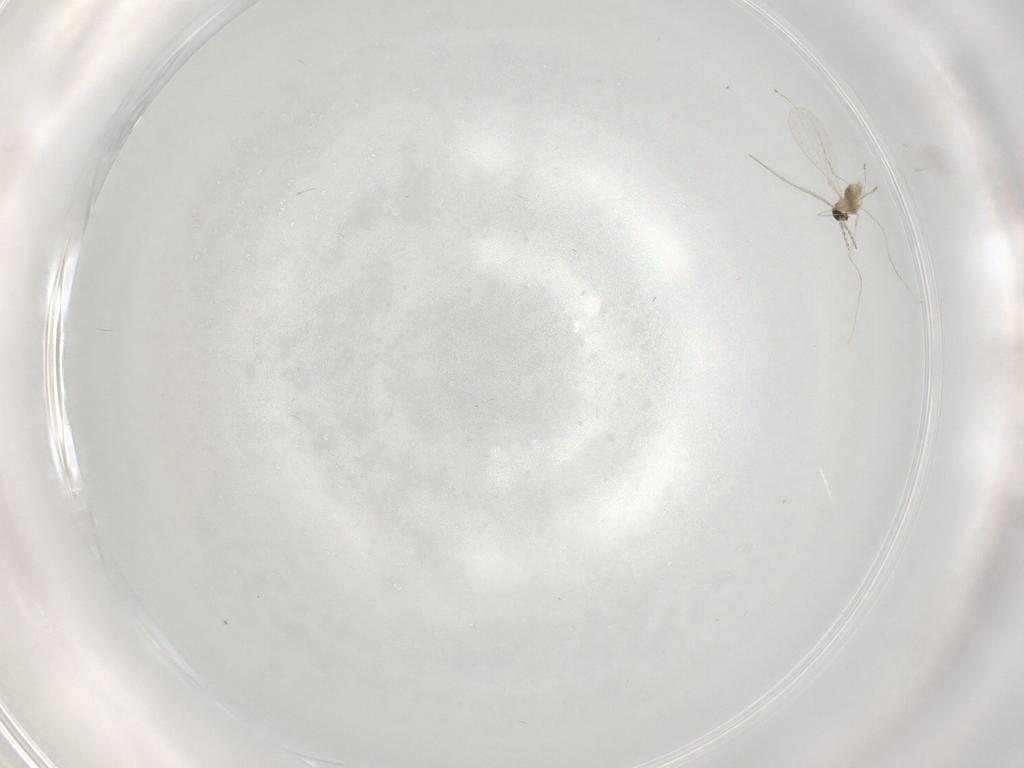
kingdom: Animalia
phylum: Arthropoda
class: Insecta
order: Diptera
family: Cecidomyiidae
